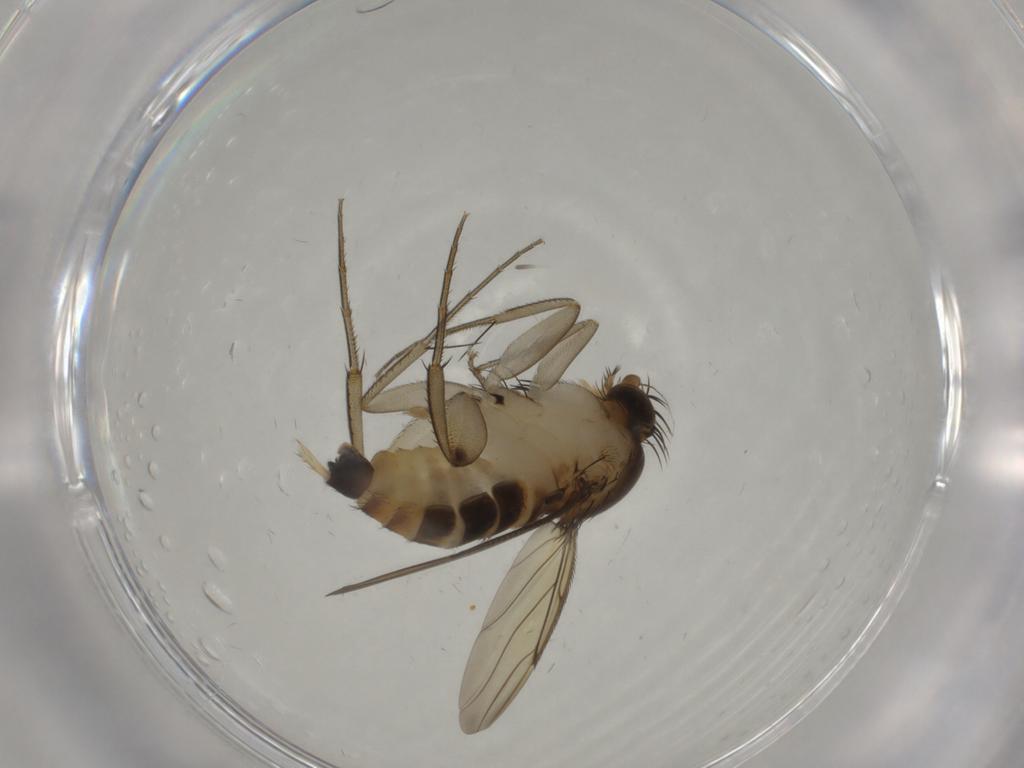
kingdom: Animalia
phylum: Arthropoda
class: Insecta
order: Diptera
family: Phoridae
